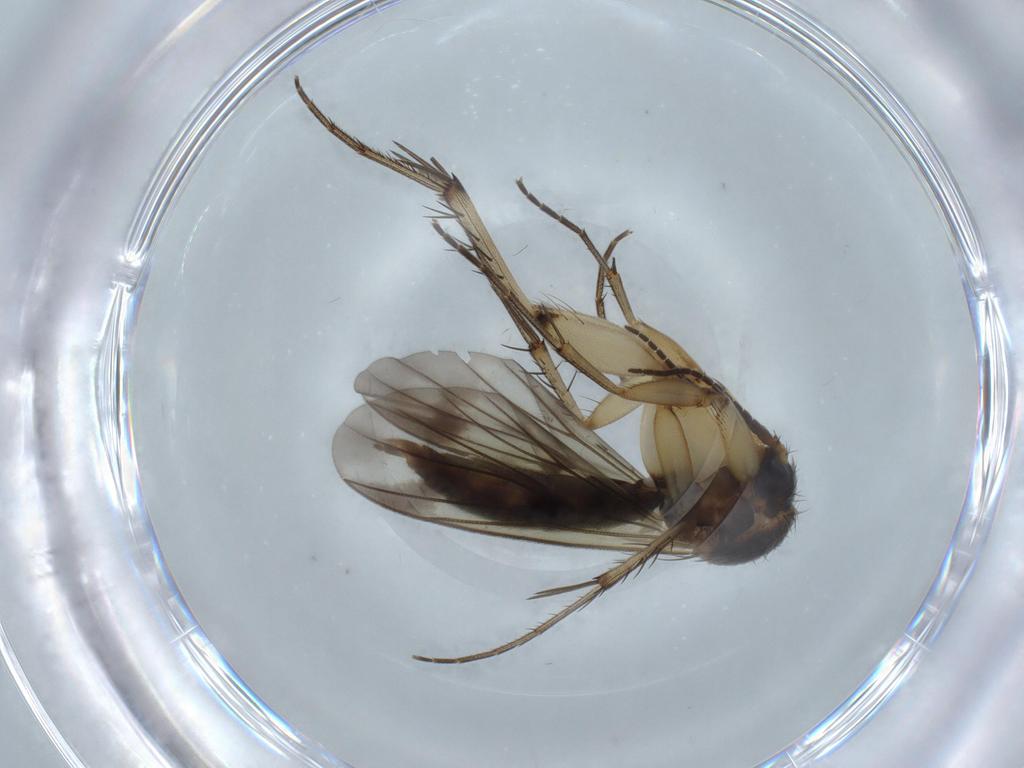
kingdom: Animalia
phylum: Arthropoda
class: Insecta
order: Diptera
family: Mycetophilidae
